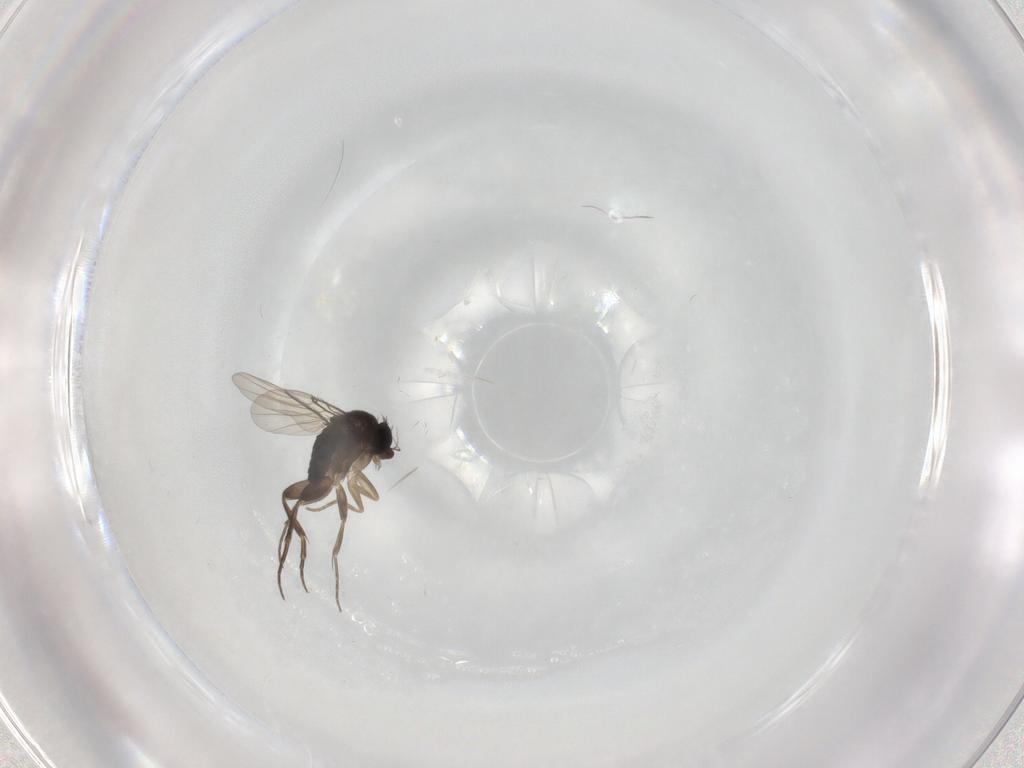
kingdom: Animalia
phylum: Arthropoda
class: Insecta
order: Diptera
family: Phoridae
